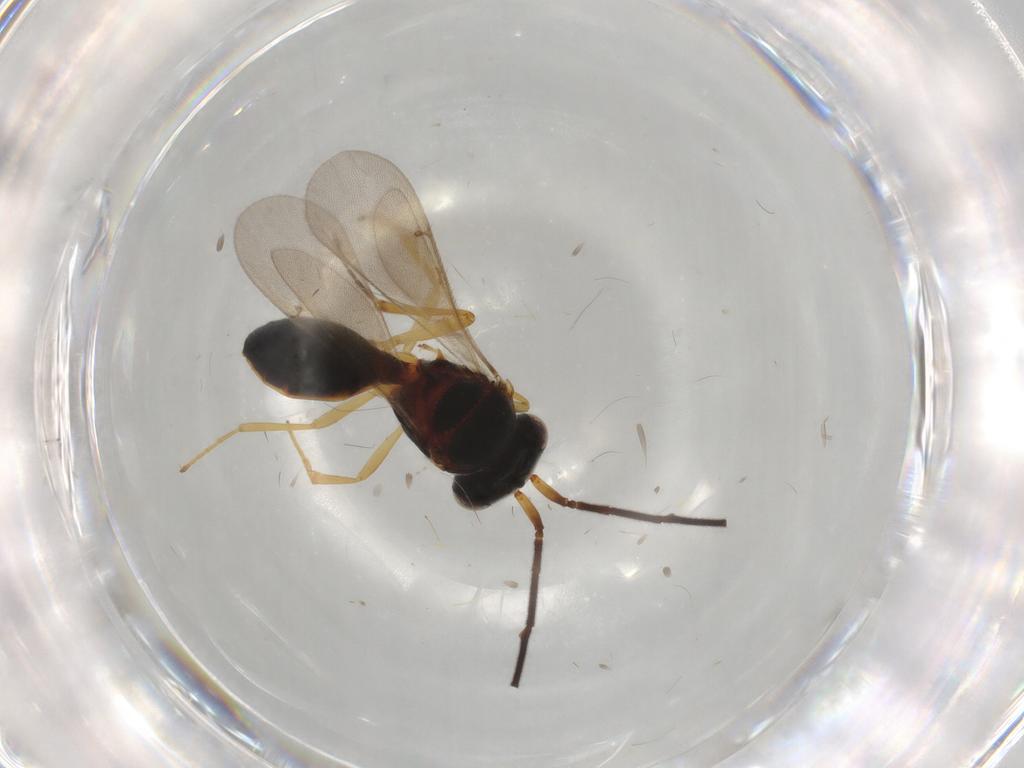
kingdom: Animalia
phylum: Arthropoda
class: Insecta
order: Hymenoptera
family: Scelionidae
